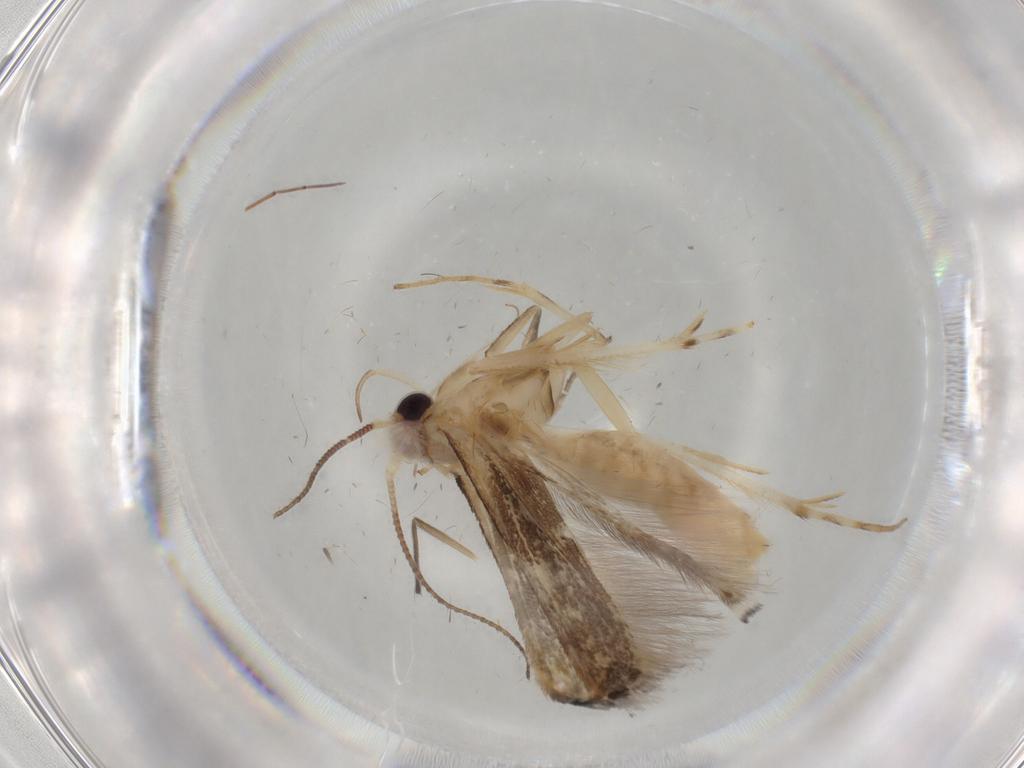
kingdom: Animalia
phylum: Arthropoda
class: Insecta
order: Lepidoptera
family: Gelechiidae
